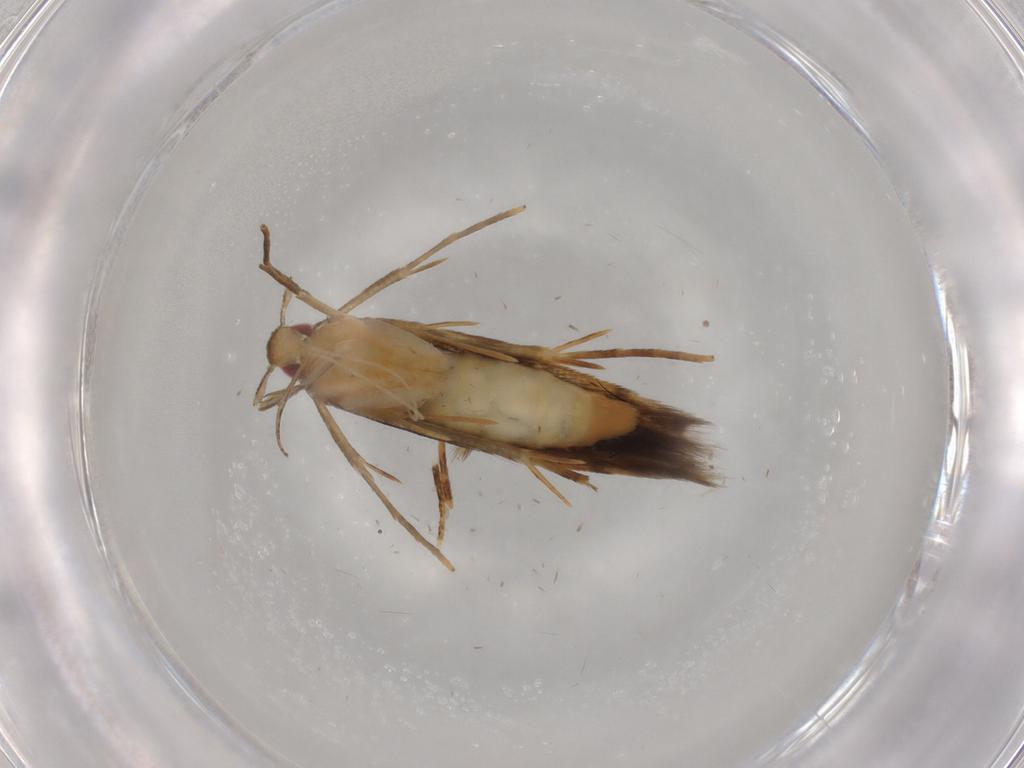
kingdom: Animalia
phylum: Arthropoda
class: Insecta
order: Lepidoptera
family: Gelechiidae
